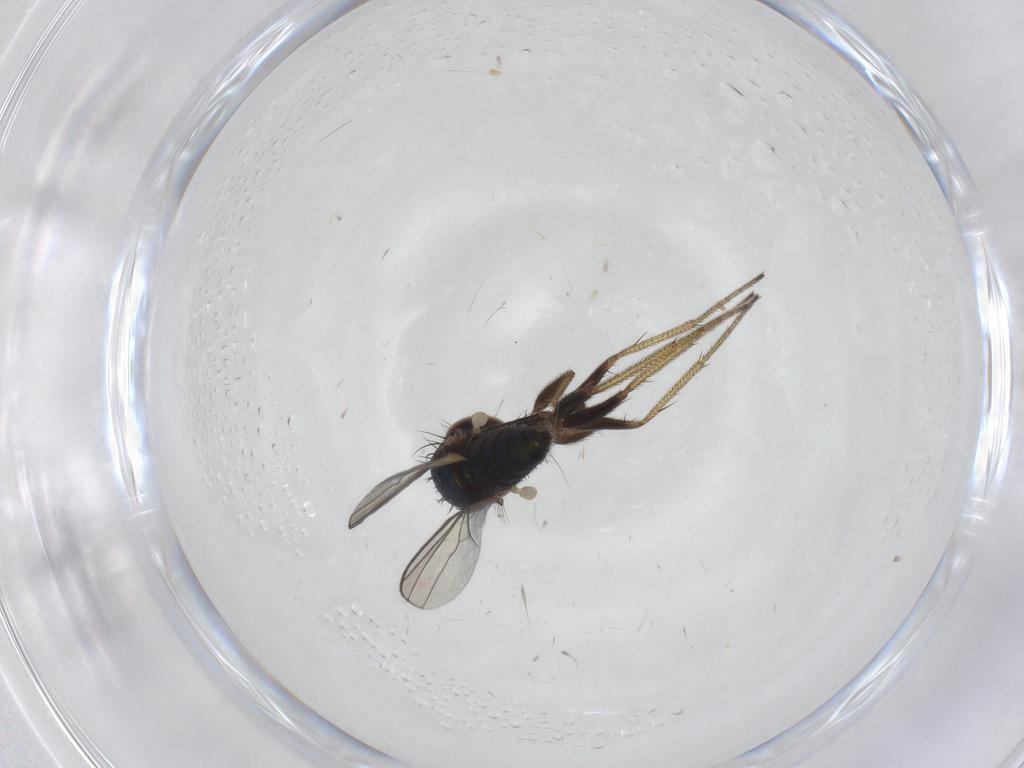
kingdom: Animalia
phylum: Arthropoda
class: Insecta
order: Diptera
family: Dolichopodidae
